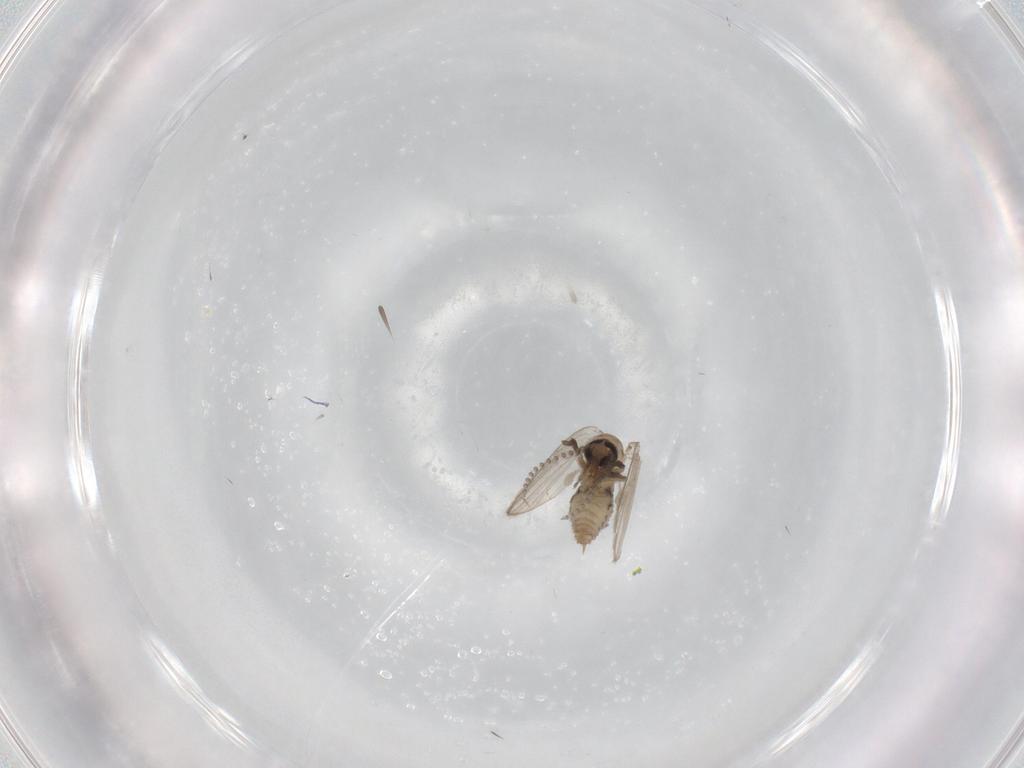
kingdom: Animalia
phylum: Arthropoda
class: Insecta
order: Diptera
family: Psychodidae
